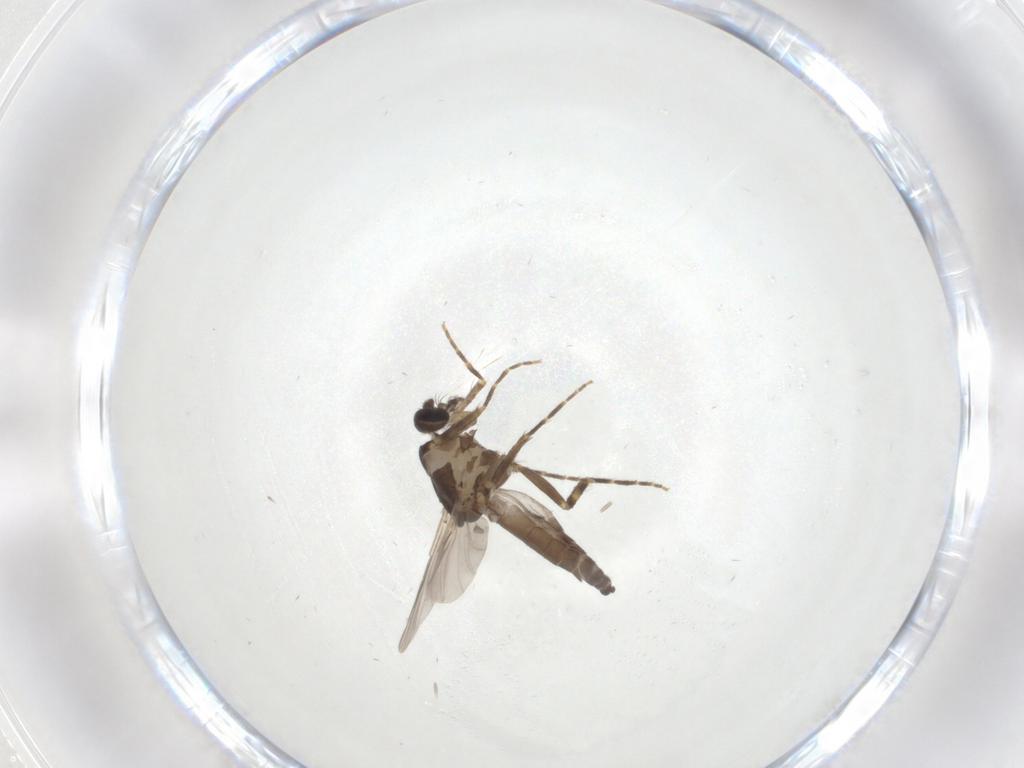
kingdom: Animalia
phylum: Arthropoda
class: Insecta
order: Diptera
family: Ceratopogonidae
